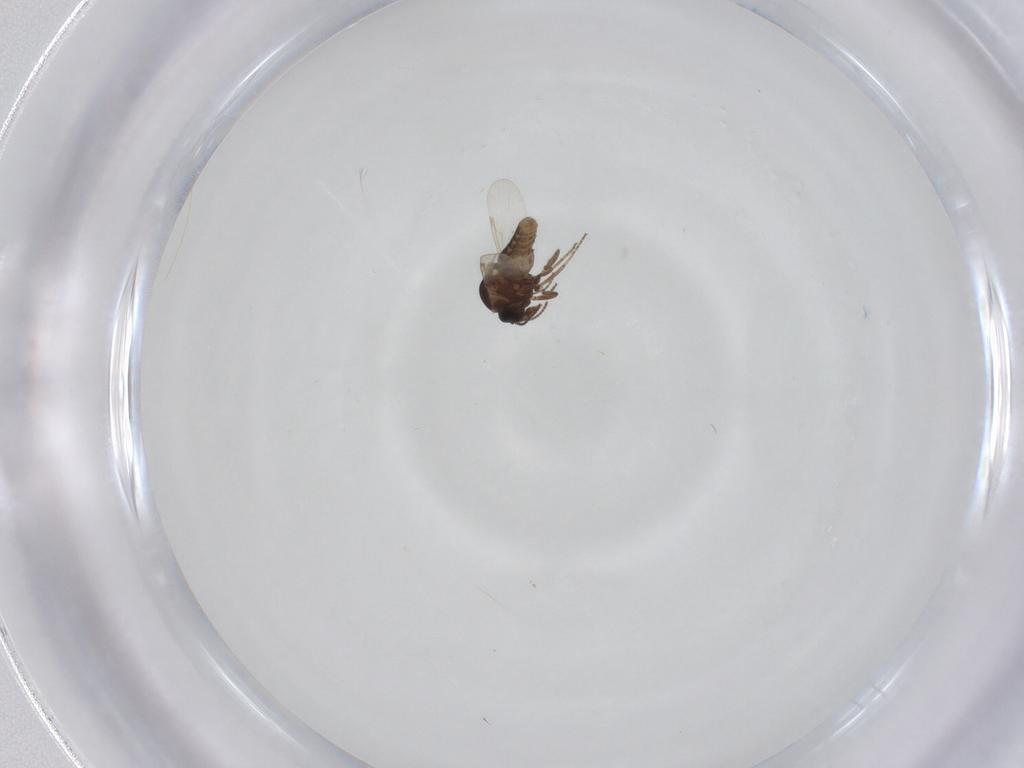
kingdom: Animalia
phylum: Arthropoda
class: Insecta
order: Diptera
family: Ceratopogonidae
